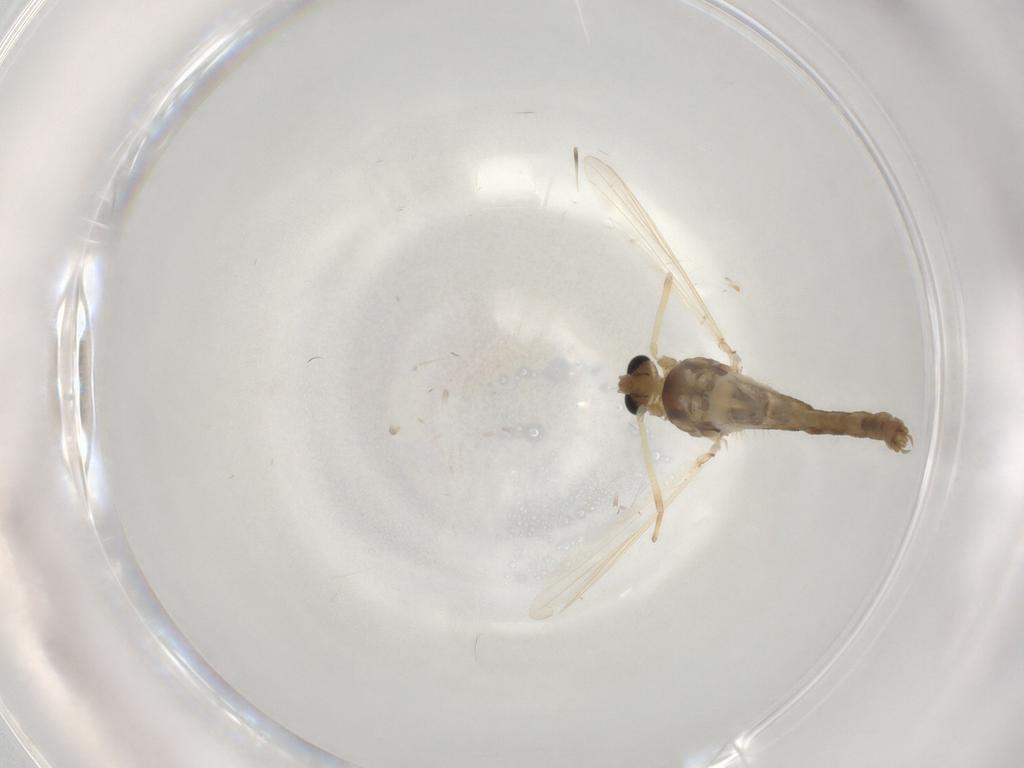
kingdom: Animalia
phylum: Arthropoda
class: Insecta
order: Diptera
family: Chironomidae
